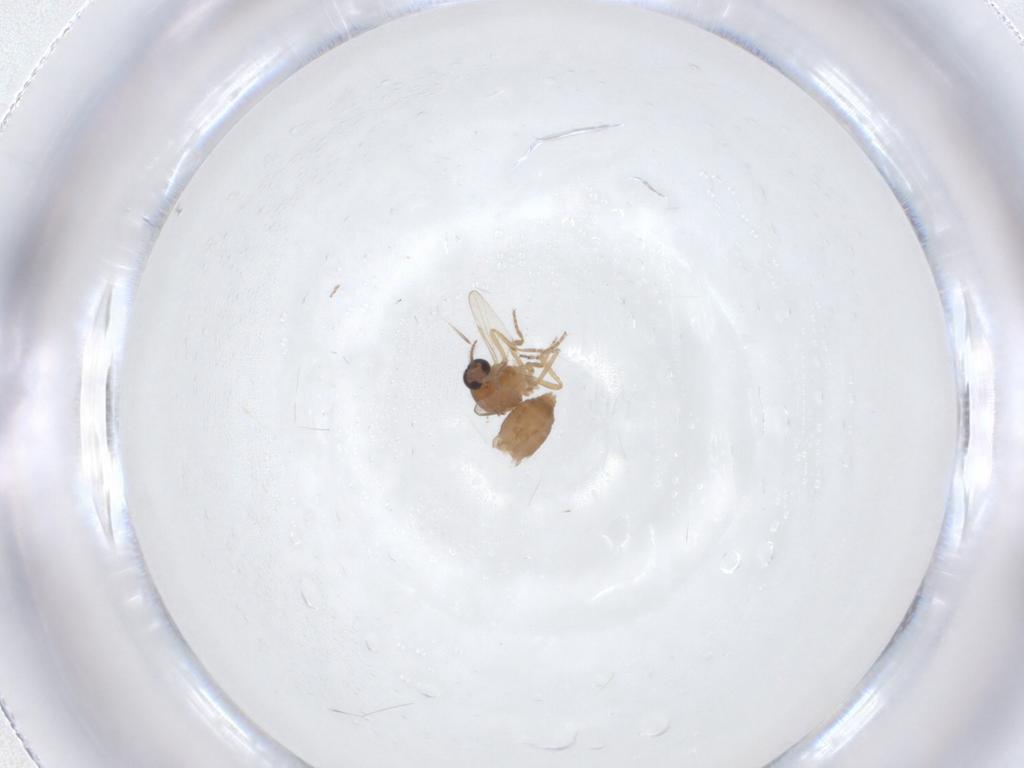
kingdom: Animalia
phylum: Arthropoda
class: Insecta
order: Diptera
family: Ceratopogonidae
